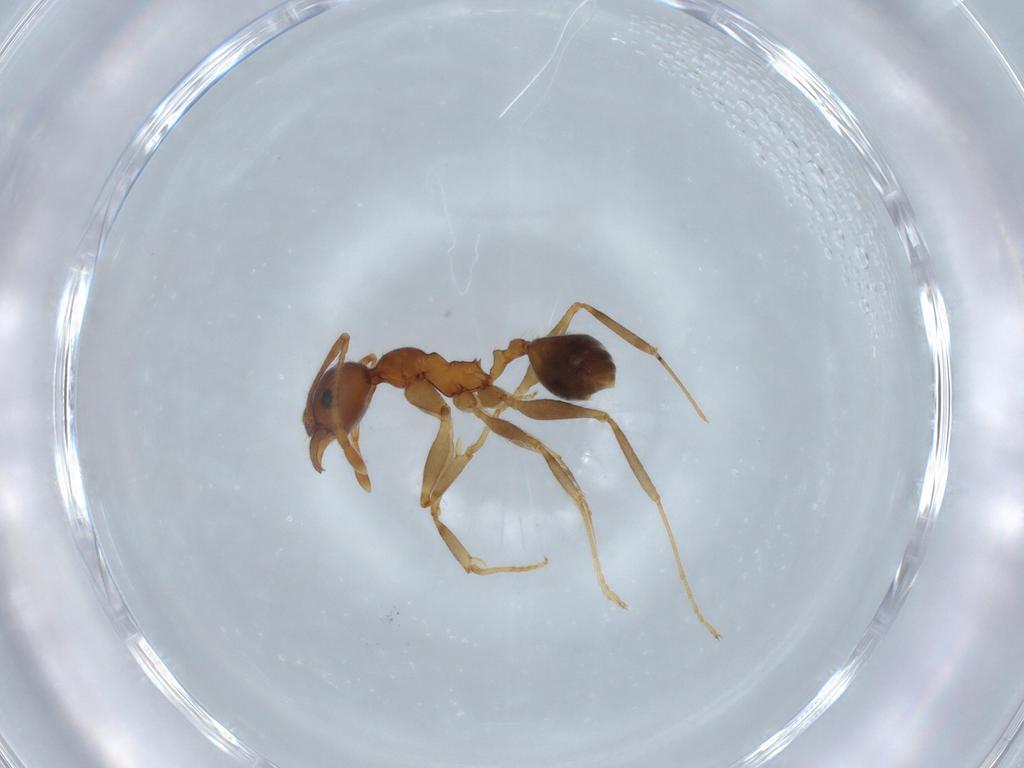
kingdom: Animalia
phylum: Arthropoda
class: Insecta
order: Hymenoptera
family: Formicidae
